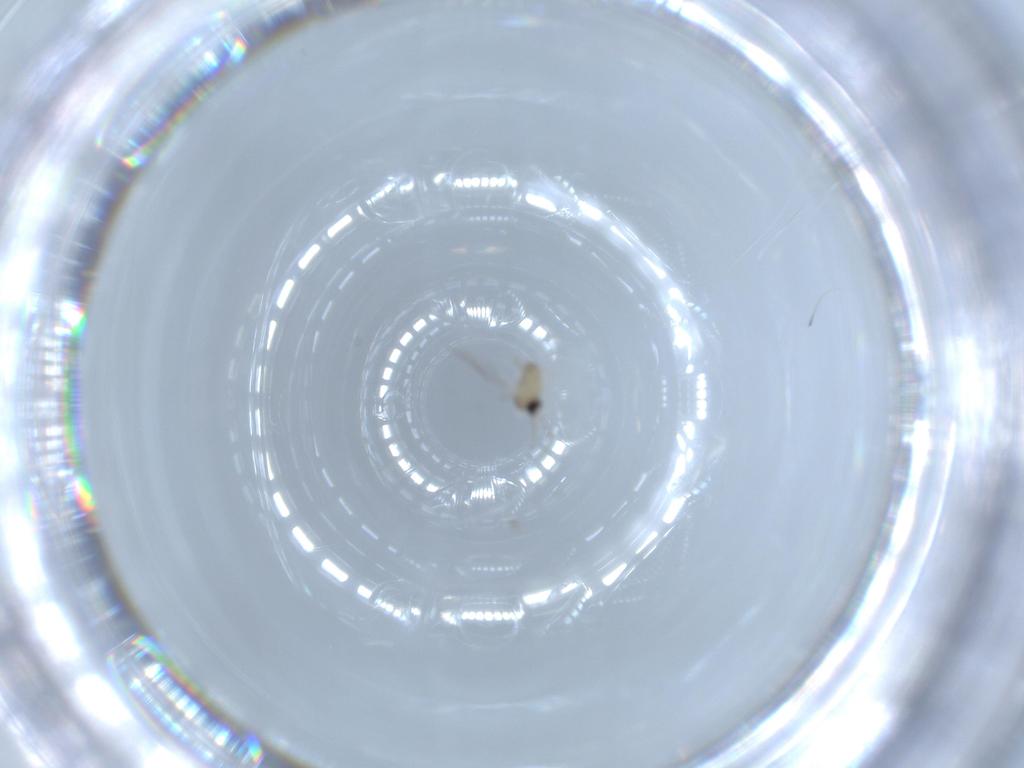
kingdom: Animalia
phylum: Arthropoda
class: Insecta
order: Diptera
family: Cecidomyiidae
